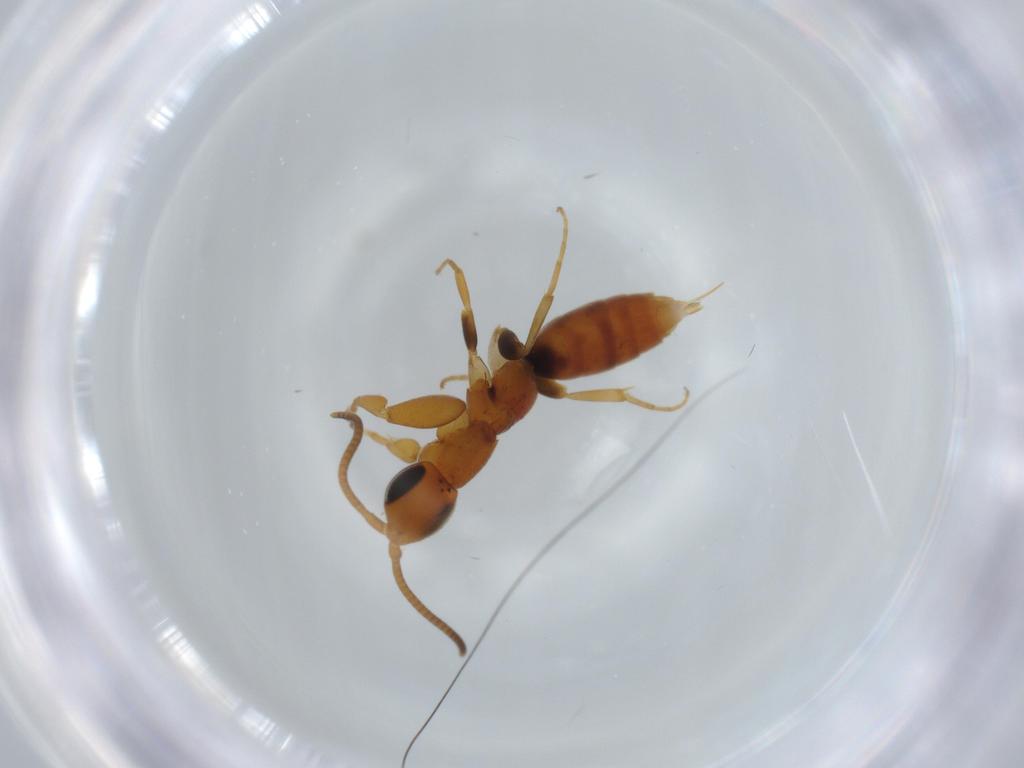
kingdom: Animalia
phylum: Arthropoda
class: Insecta
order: Hymenoptera
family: Sclerogibbidae
